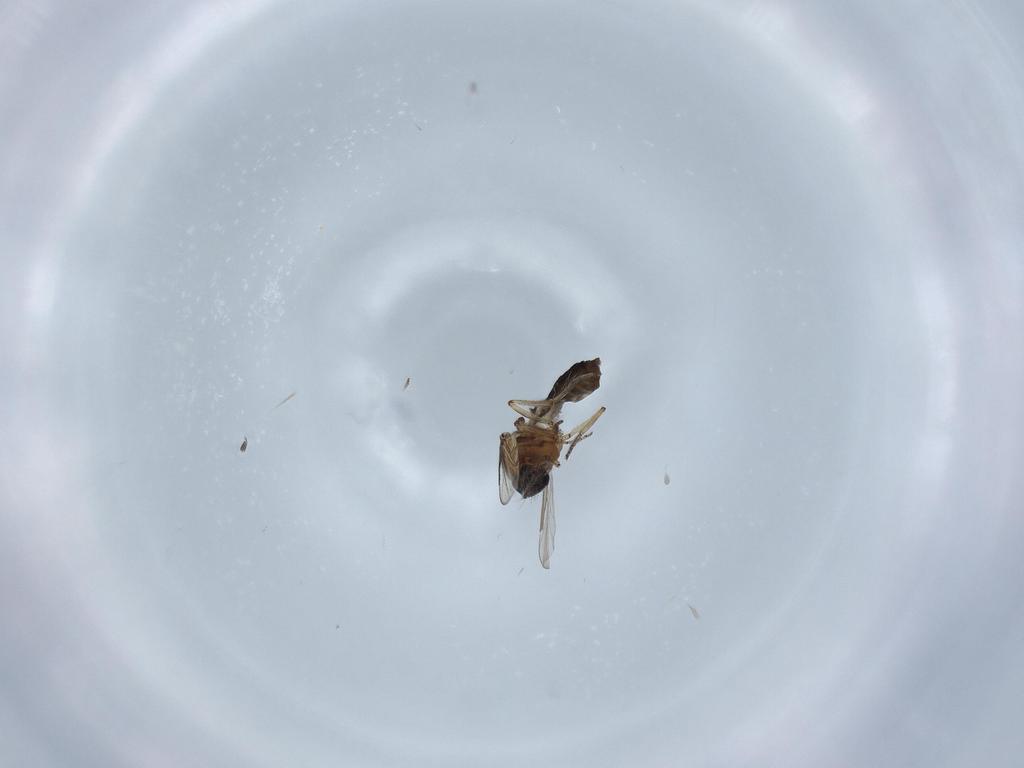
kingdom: Animalia
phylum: Arthropoda
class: Insecta
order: Diptera
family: Ceratopogonidae
